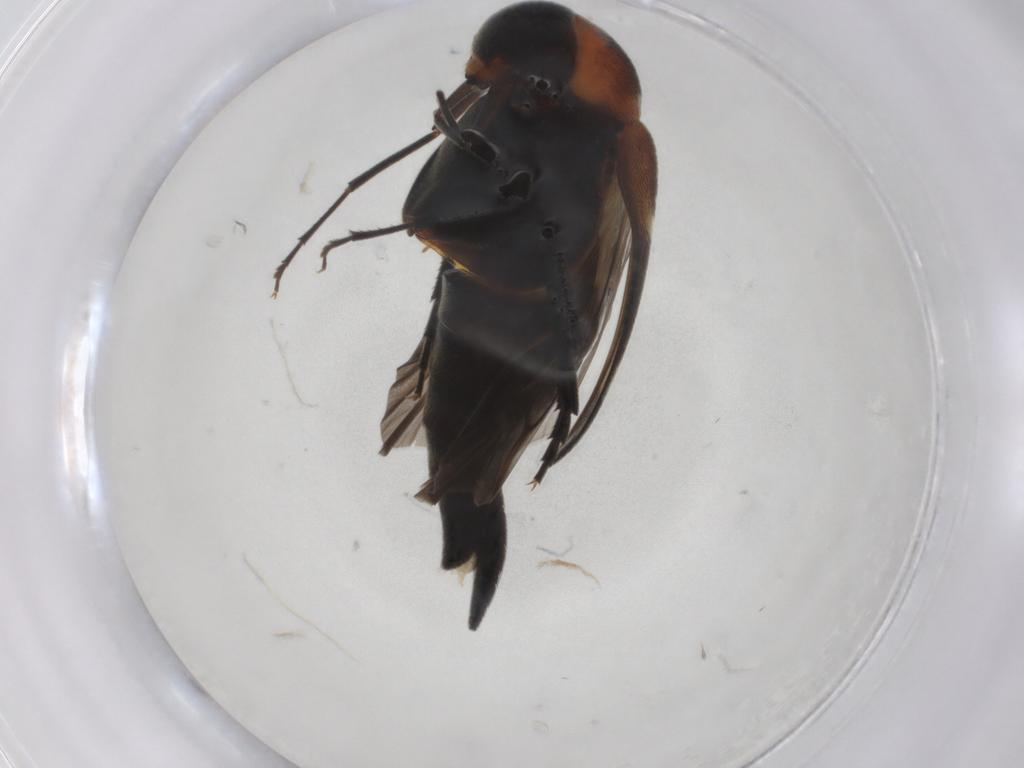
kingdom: Animalia
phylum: Arthropoda
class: Insecta
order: Coleoptera
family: Mordellidae
